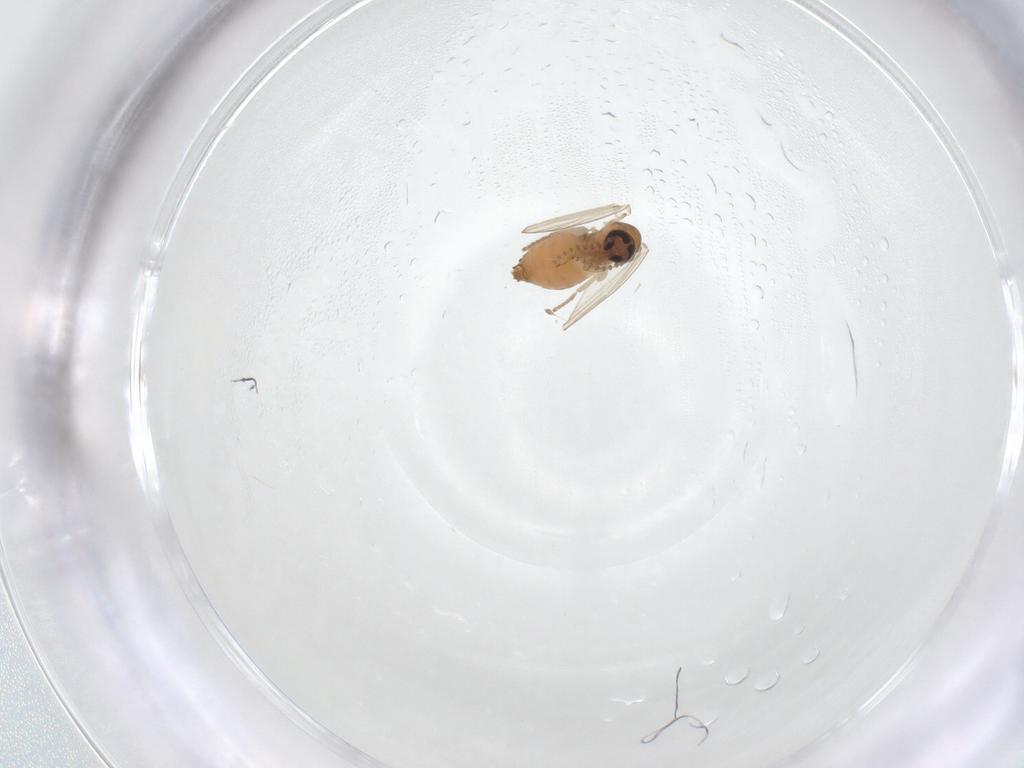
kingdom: Animalia
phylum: Arthropoda
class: Insecta
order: Diptera
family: Psychodidae
